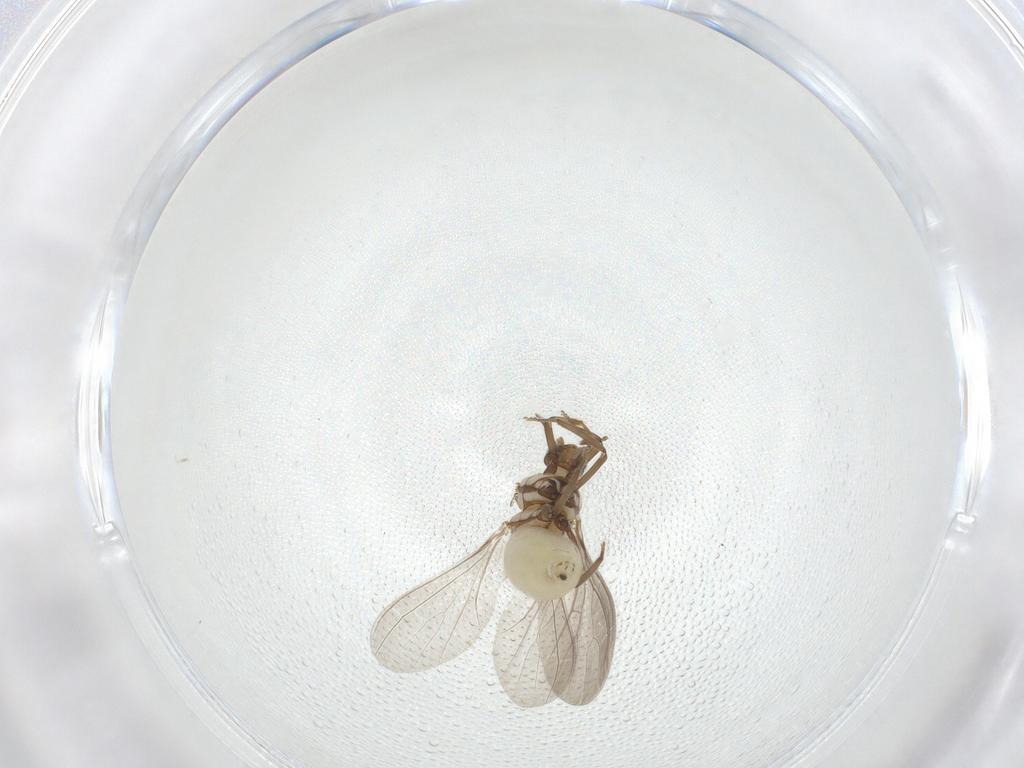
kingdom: Animalia
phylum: Arthropoda
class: Insecta
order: Neuroptera
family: Coniopterygidae
